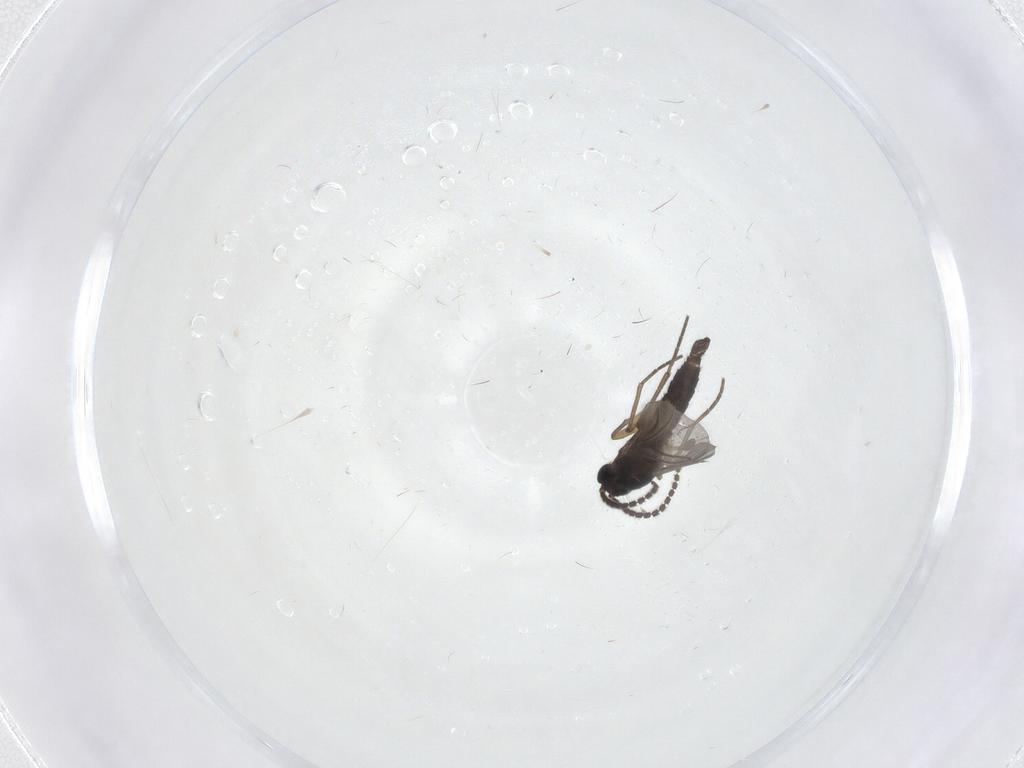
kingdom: Animalia
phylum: Arthropoda
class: Insecta
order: Diptera
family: Sciaridae
